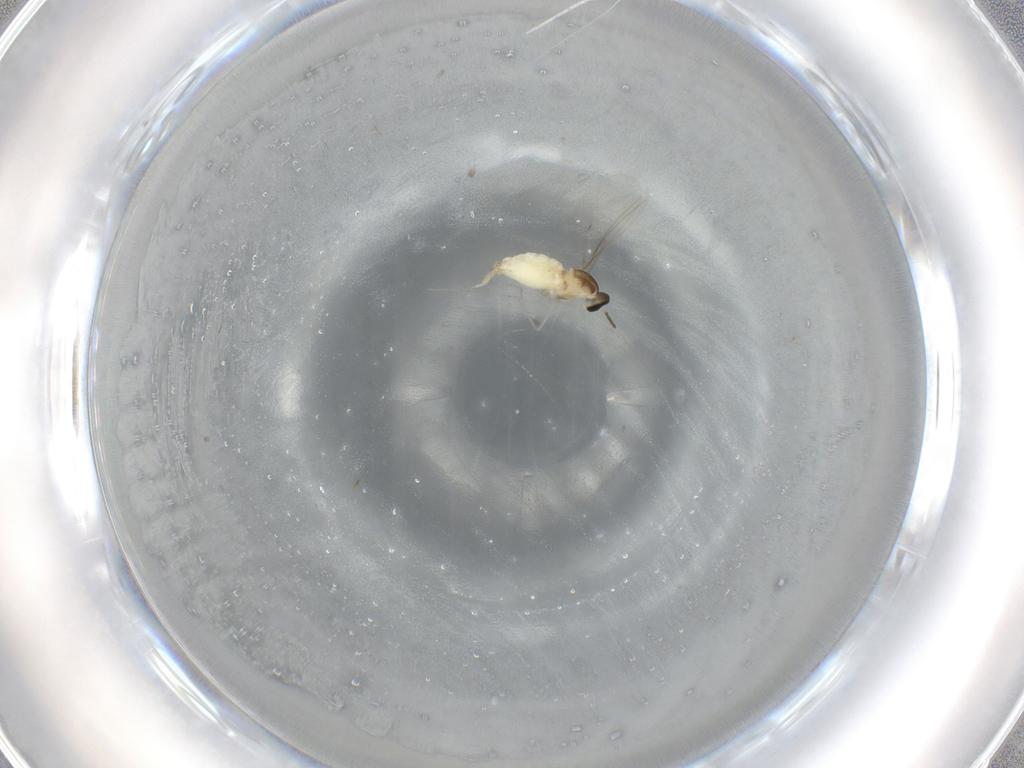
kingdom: Animalia
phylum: Arthropoda
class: Insecta
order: Diptera
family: Cecidomyiidae
